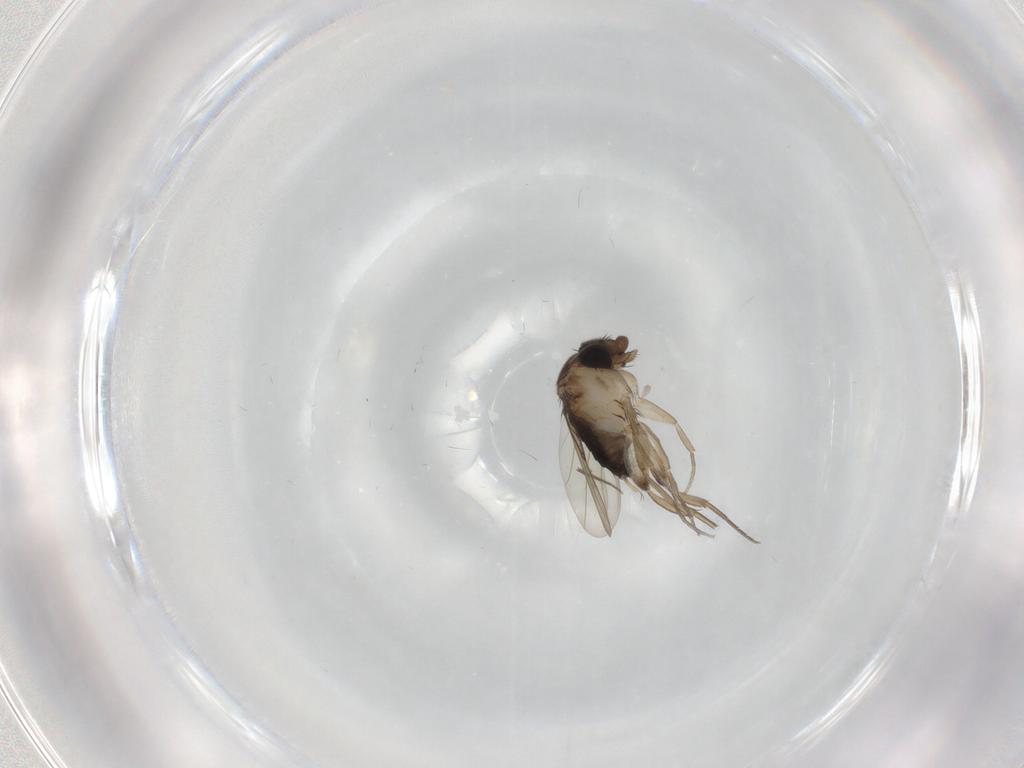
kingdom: Animalia
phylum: Arthropoda
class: Insecta
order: Diptera
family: Phoridae
